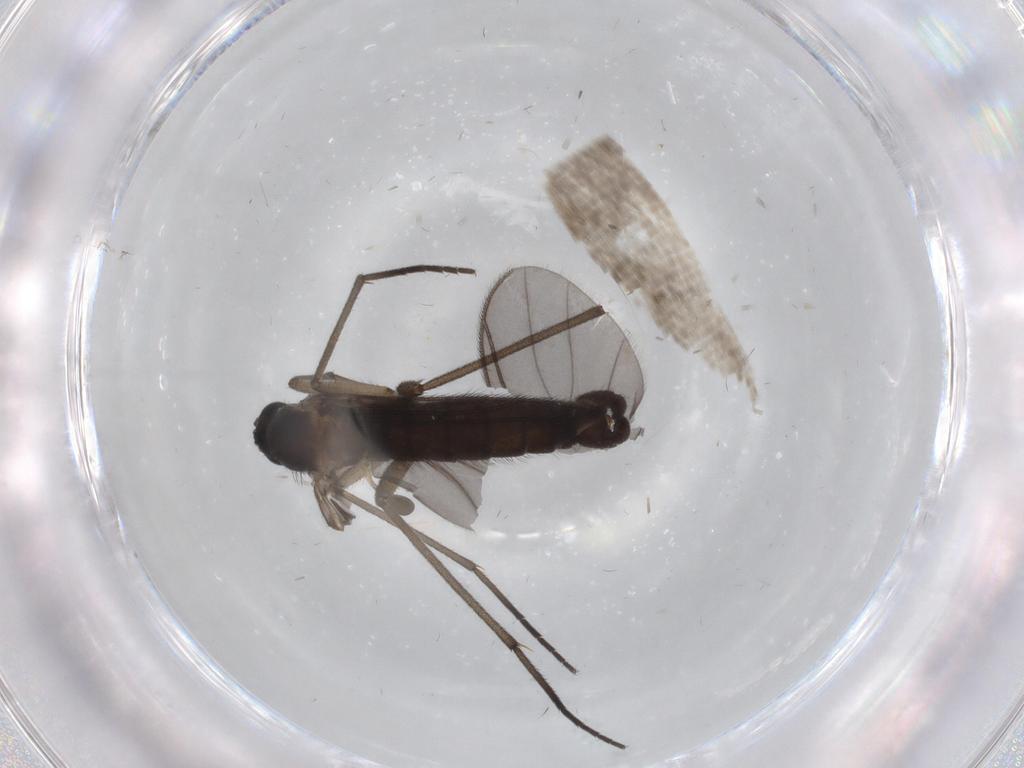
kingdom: Animalia
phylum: Arthropoda
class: Insecta
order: Diptera
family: Sciaridae
